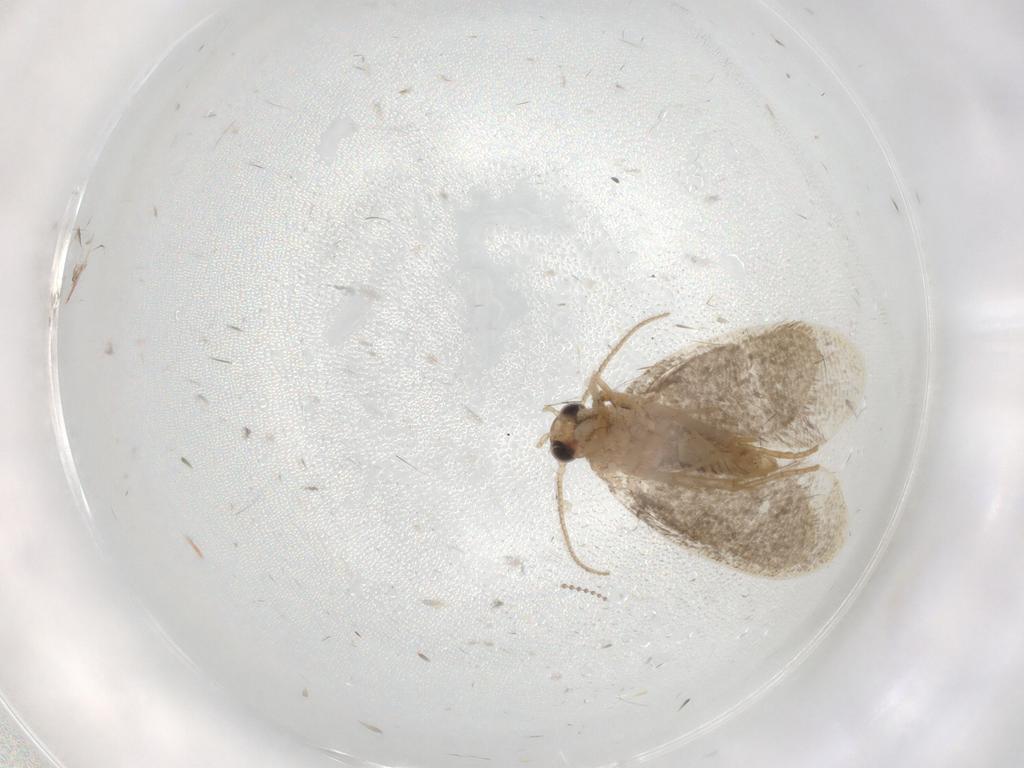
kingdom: Animalia
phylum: Arthropoda
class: Insecta
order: Lepidoptera
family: Psychidae
